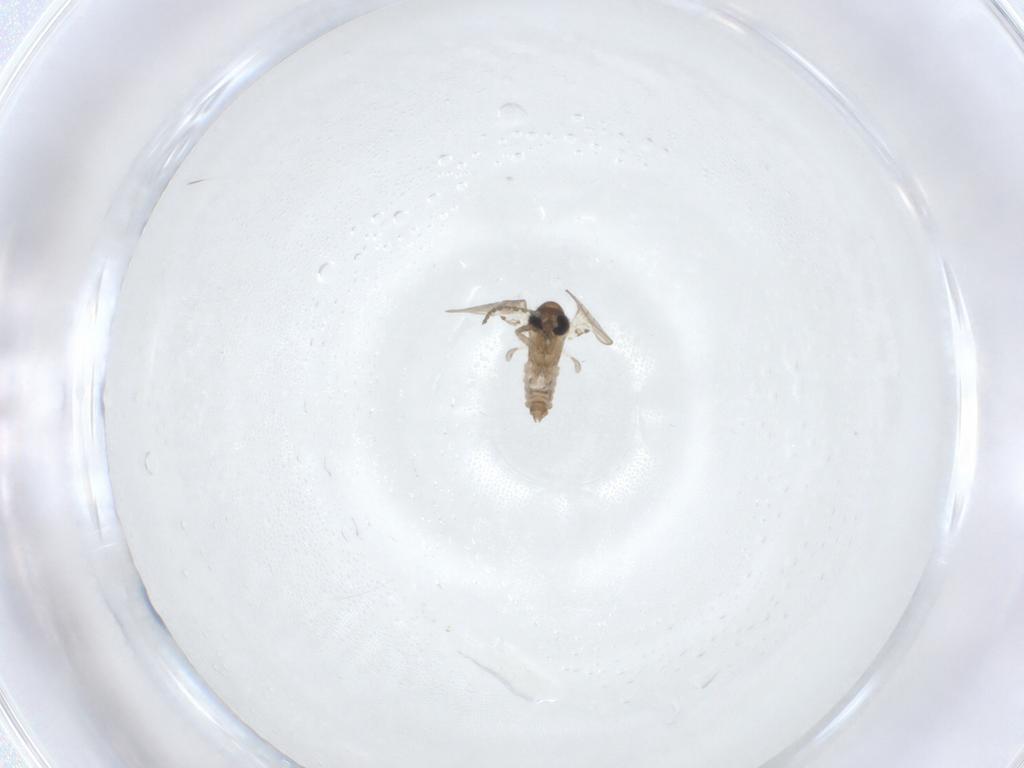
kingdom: Animalia
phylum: Arthropoda
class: Insecta
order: Diptera
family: Psychodidae
